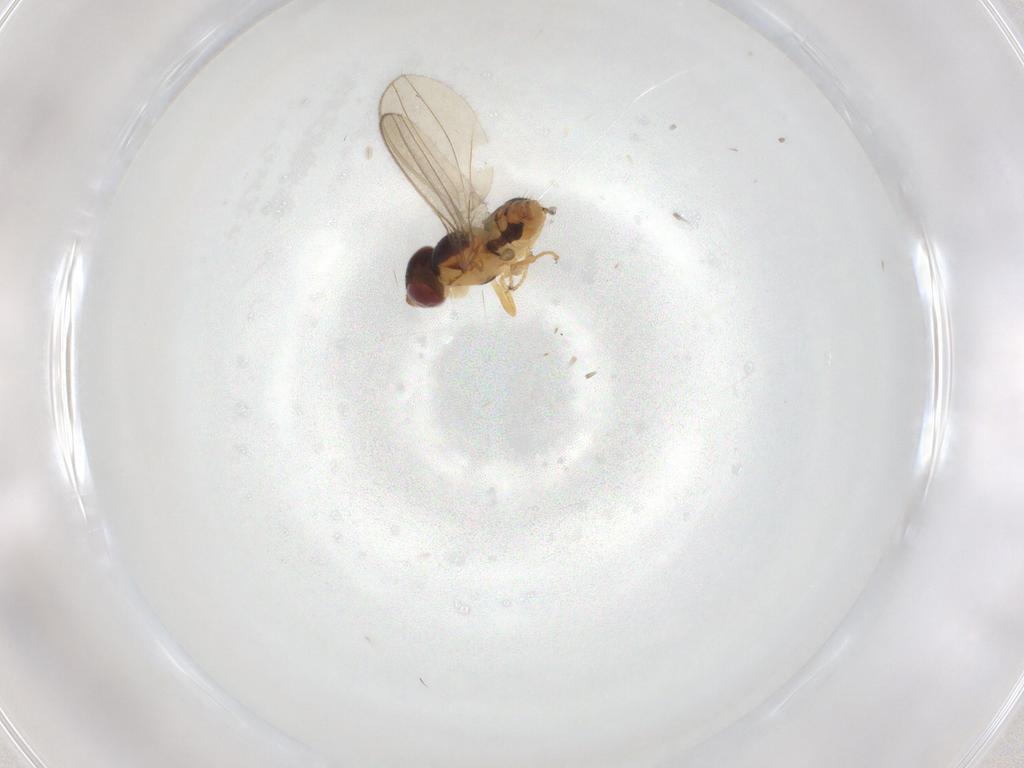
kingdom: Animalia
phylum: Arthropoda
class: Insecta
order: Diptera
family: Asteiidae
